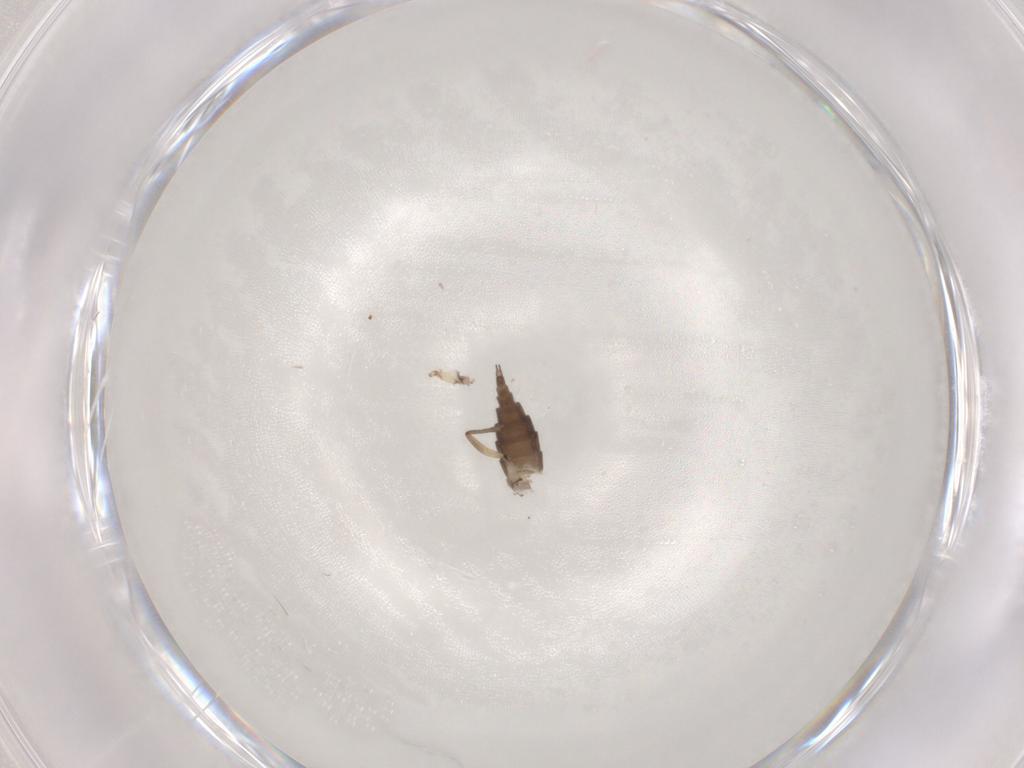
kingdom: Animalia
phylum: Arthropoda
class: Insecta
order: Diptera
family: Sciaridae
